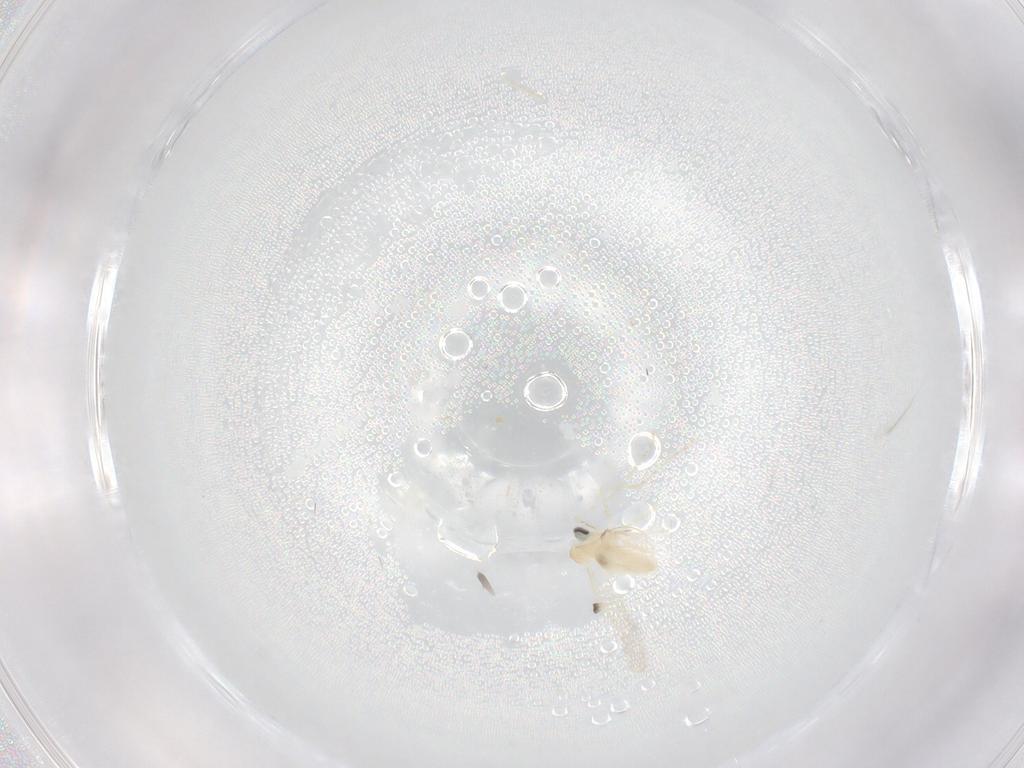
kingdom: Animalia
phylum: Arthropoda
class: Insecta
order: Diptera
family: Cecidomyiidae
